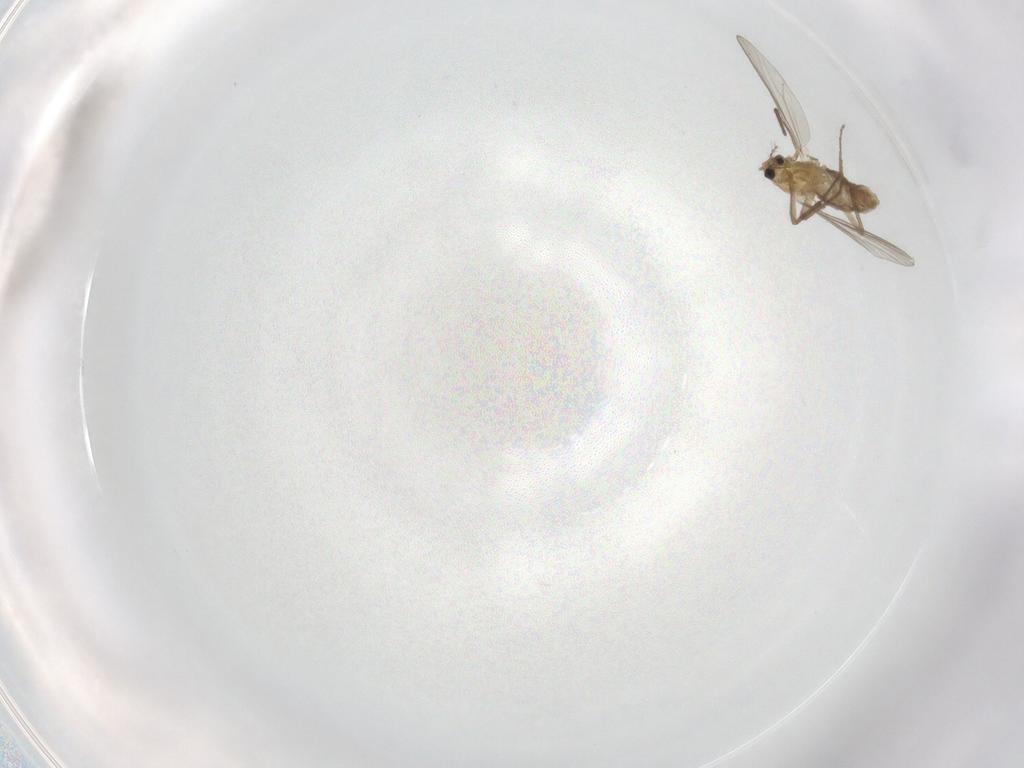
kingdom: Animalia
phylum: Arthropoda
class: Insecta
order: Diptera
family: Chironomidae
